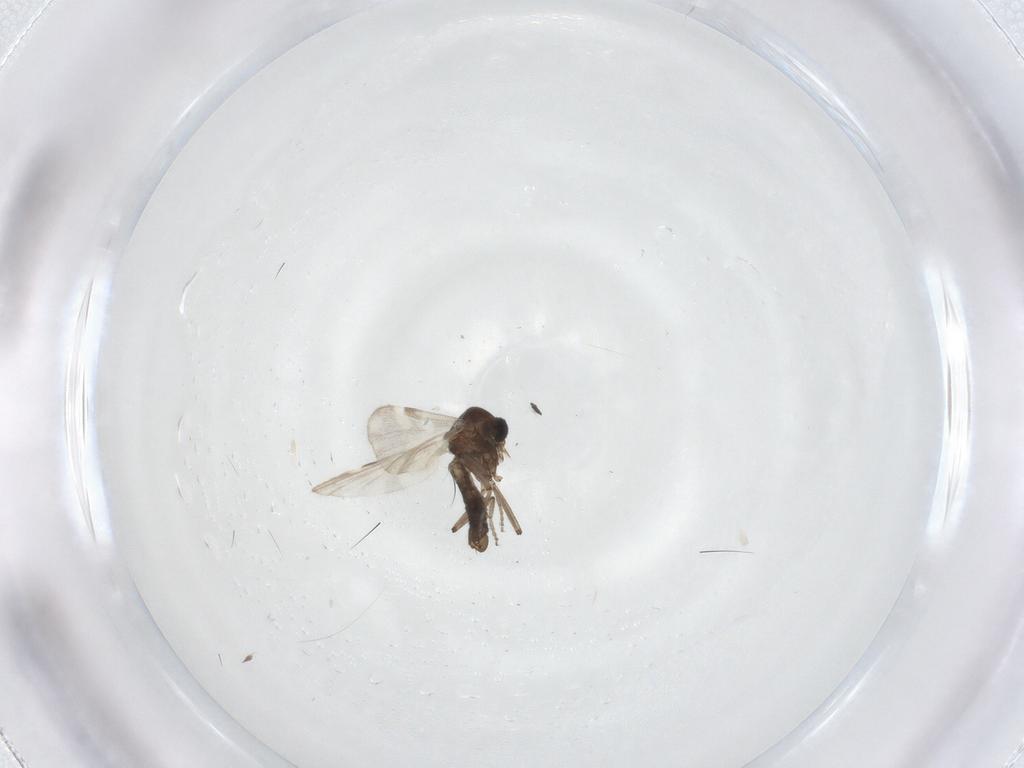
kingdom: Animalia
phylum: Arthropoda
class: Insecta
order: Diptera
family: Ceratopogonidae
